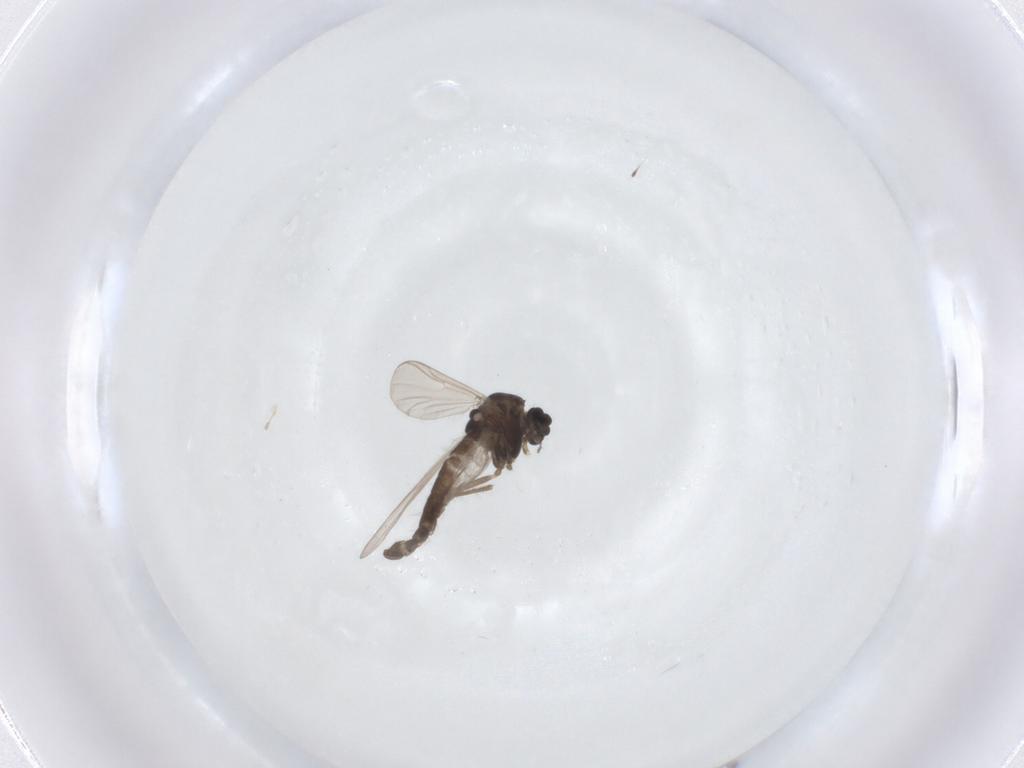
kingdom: Animalia
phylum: Arthropoda
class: Insecta
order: Diptera
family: Chironomidae
